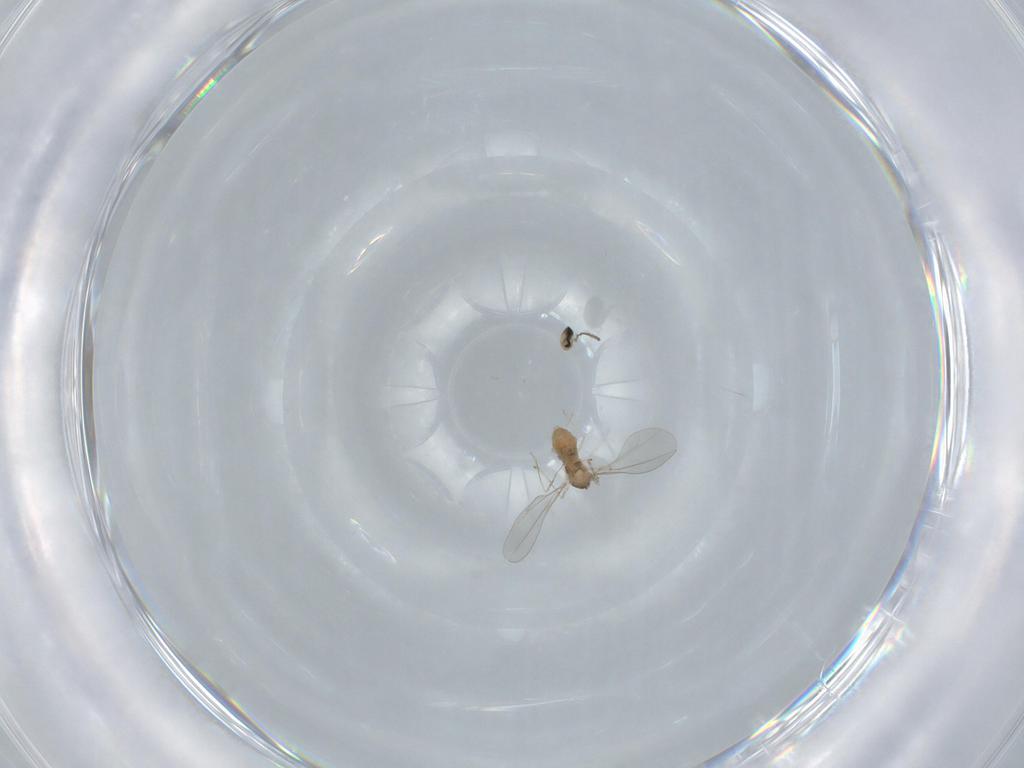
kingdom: Animalia
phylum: Arthropoda
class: Insecta
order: Diptera
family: Cecidomyiidae
